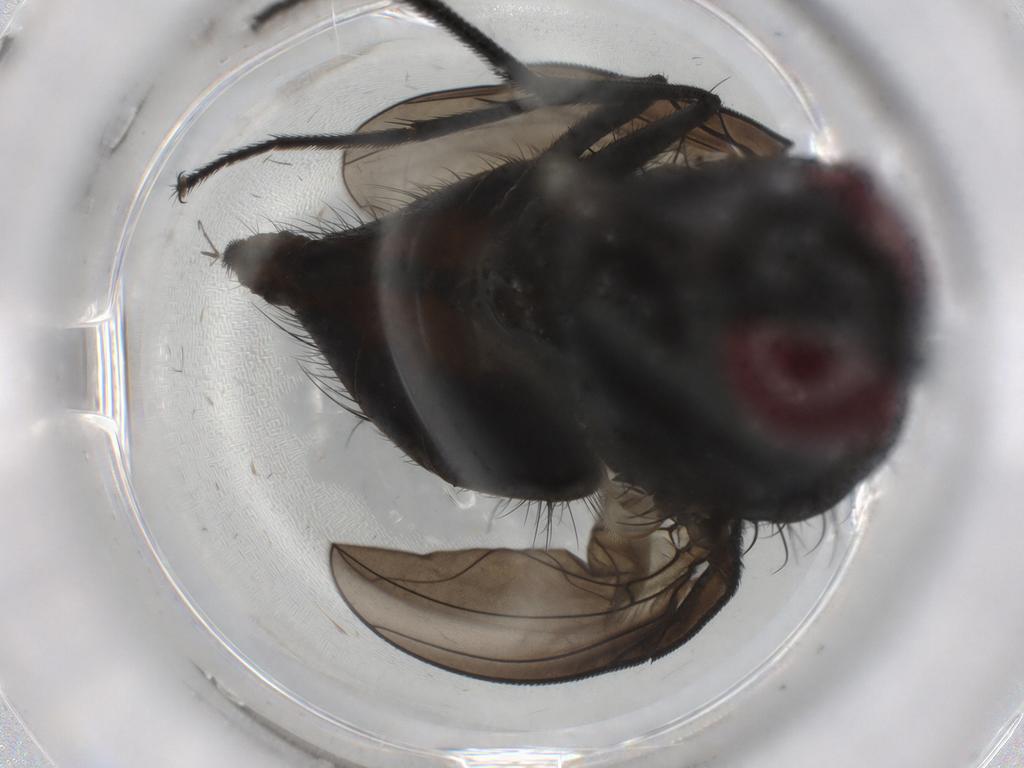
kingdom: Animalia
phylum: Arthropoda
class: Insecta
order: Diptera
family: Muscidae
